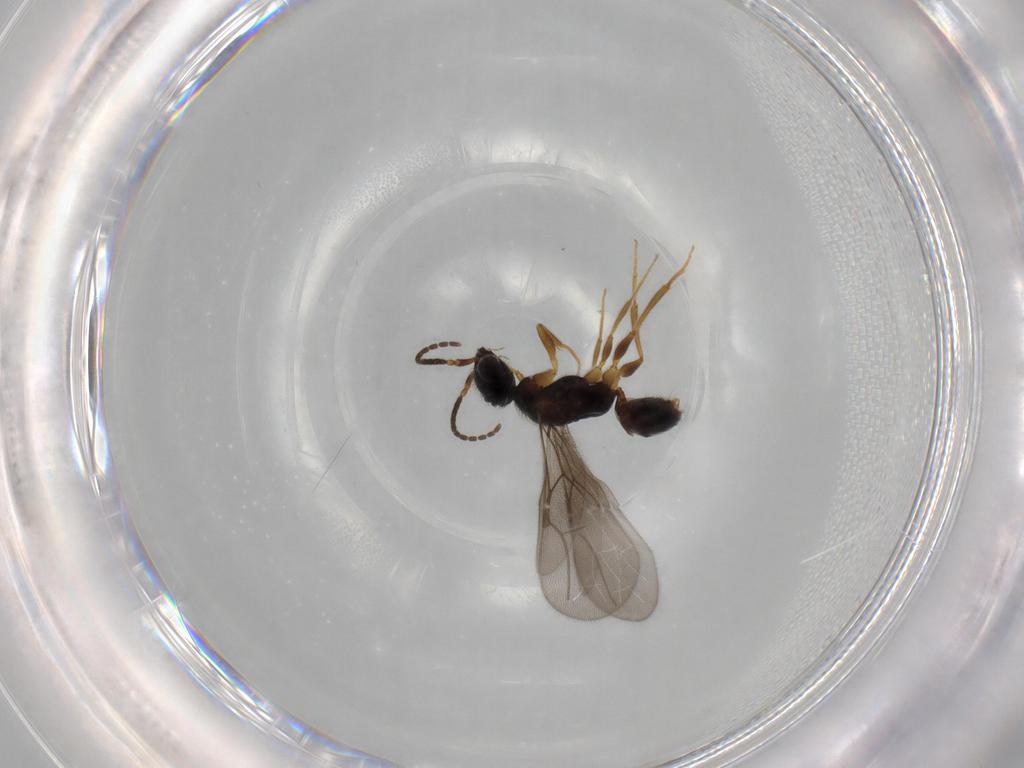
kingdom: Animalia
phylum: Arthropoda
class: Insecta
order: Hymenoptera
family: Bethylidae
